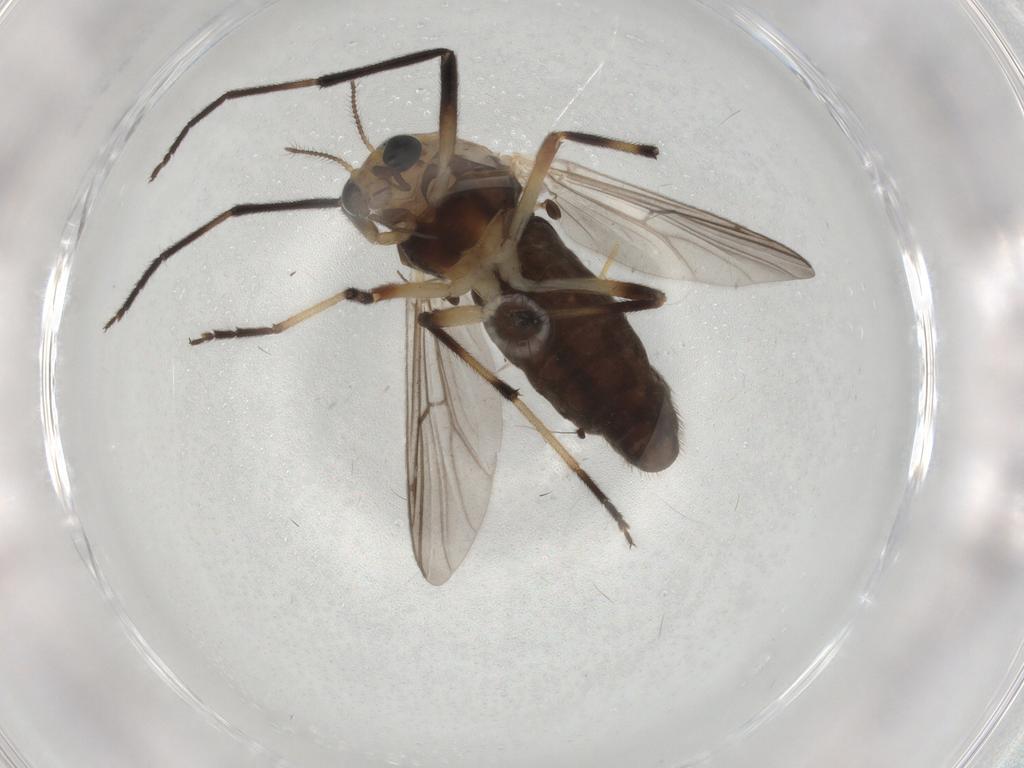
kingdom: Animalia
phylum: Arthropoda
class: Insecta
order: Diptera
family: Chironomidae
